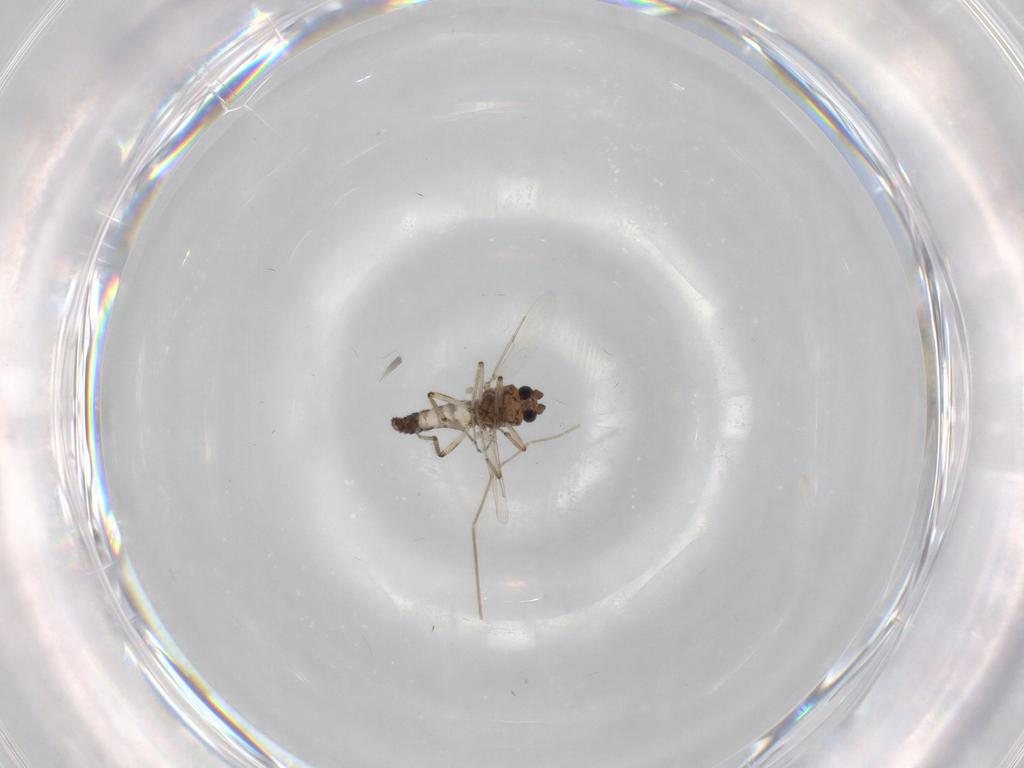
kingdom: Animalia
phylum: Arthropoda
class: Insecta
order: Diptera
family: Chironomidae
